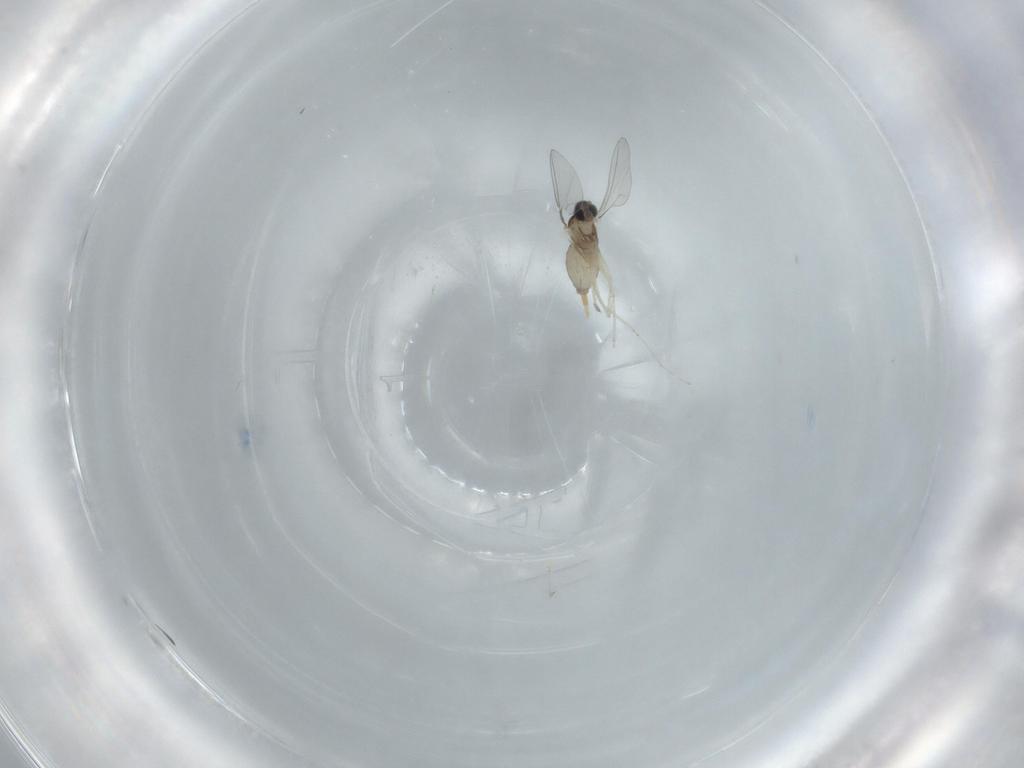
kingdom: Animalia
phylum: Arthropoda
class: Insecta
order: Diptera
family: Cecidomyiidae
